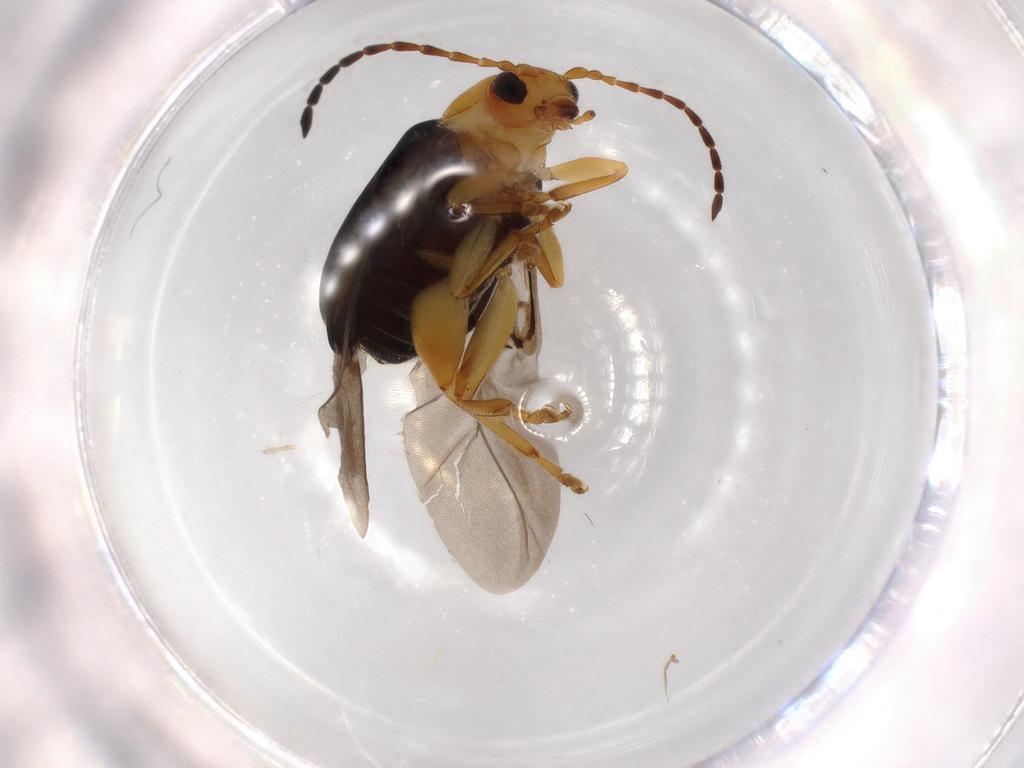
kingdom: Animalia
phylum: Arthropoda
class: Insecta
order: Coleoptera
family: Chrysomelidae
